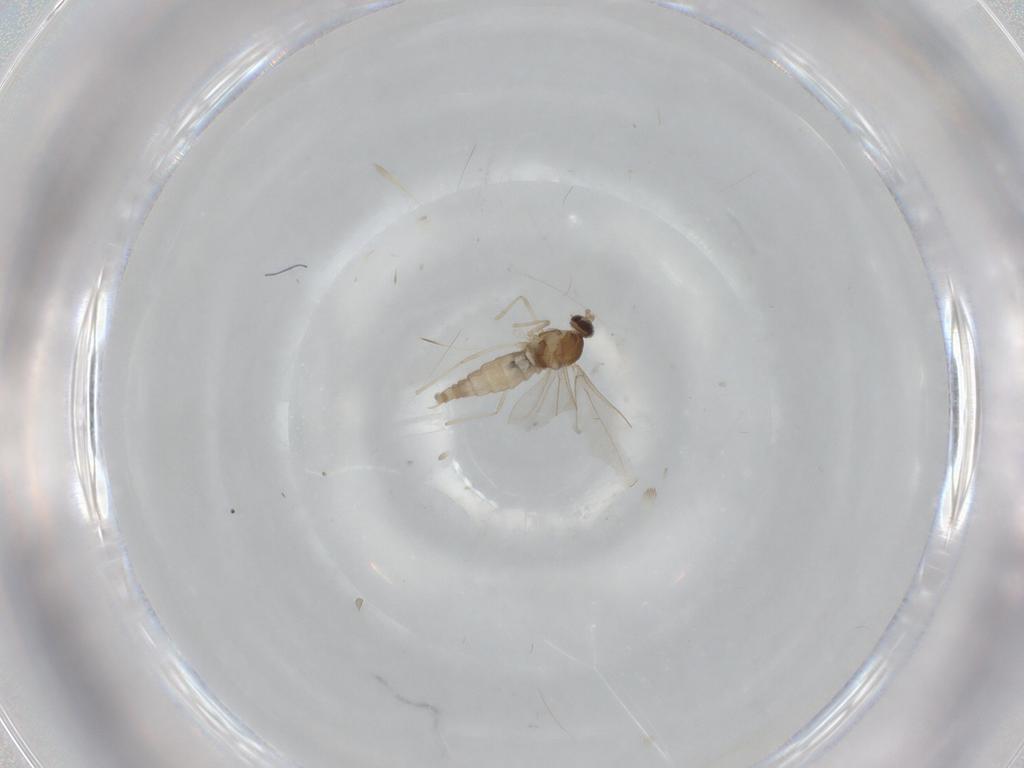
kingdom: Animalia
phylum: Arthropoda
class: Insecta
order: Diptera
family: Cecidomyiidae
